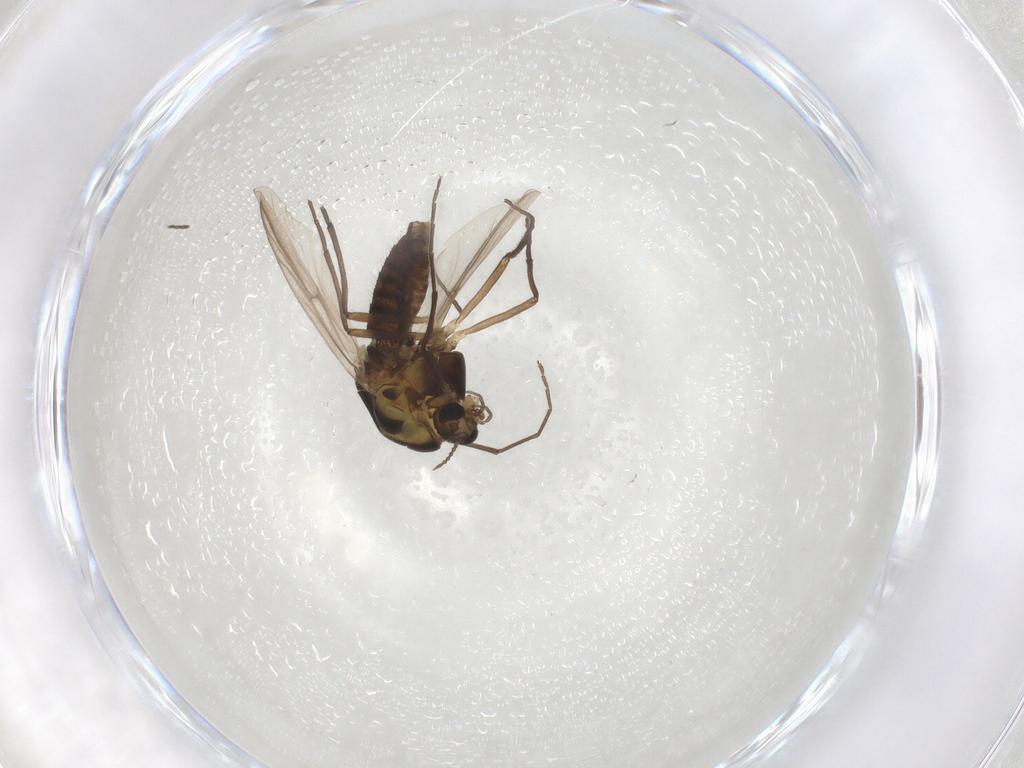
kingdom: Animalia
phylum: Arthropoda
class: Insecta
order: Diptera
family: Chironomidae
